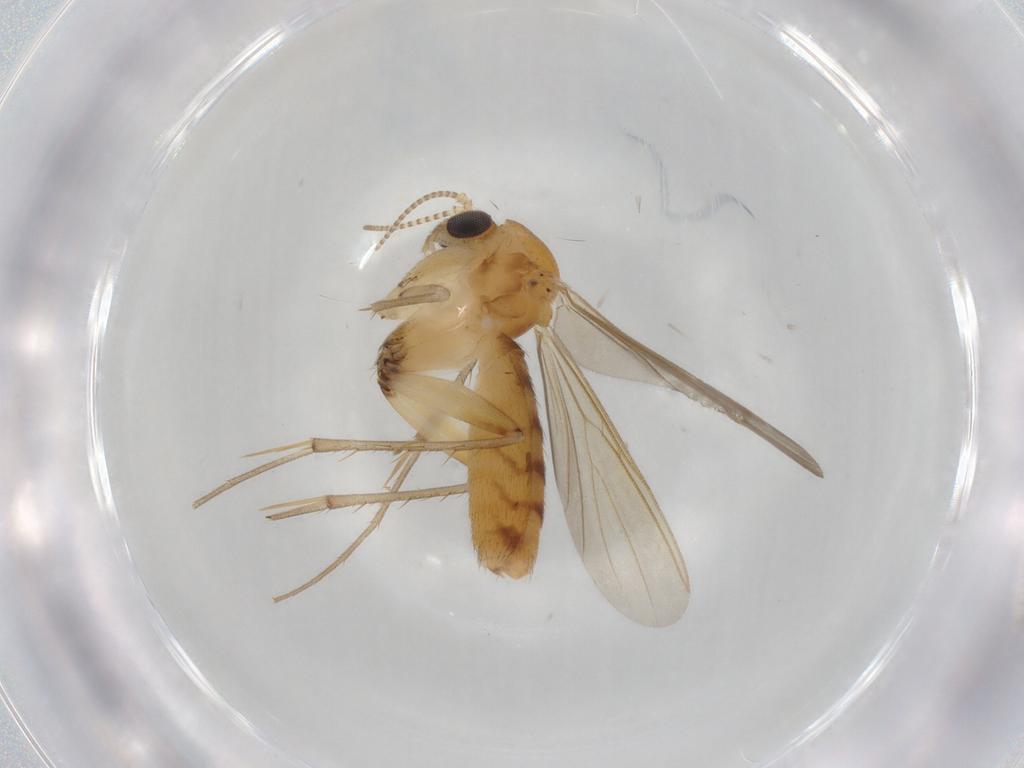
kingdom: Animalia
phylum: Arthropoda
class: Insecta
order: Diptera
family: Mycetophilidae
